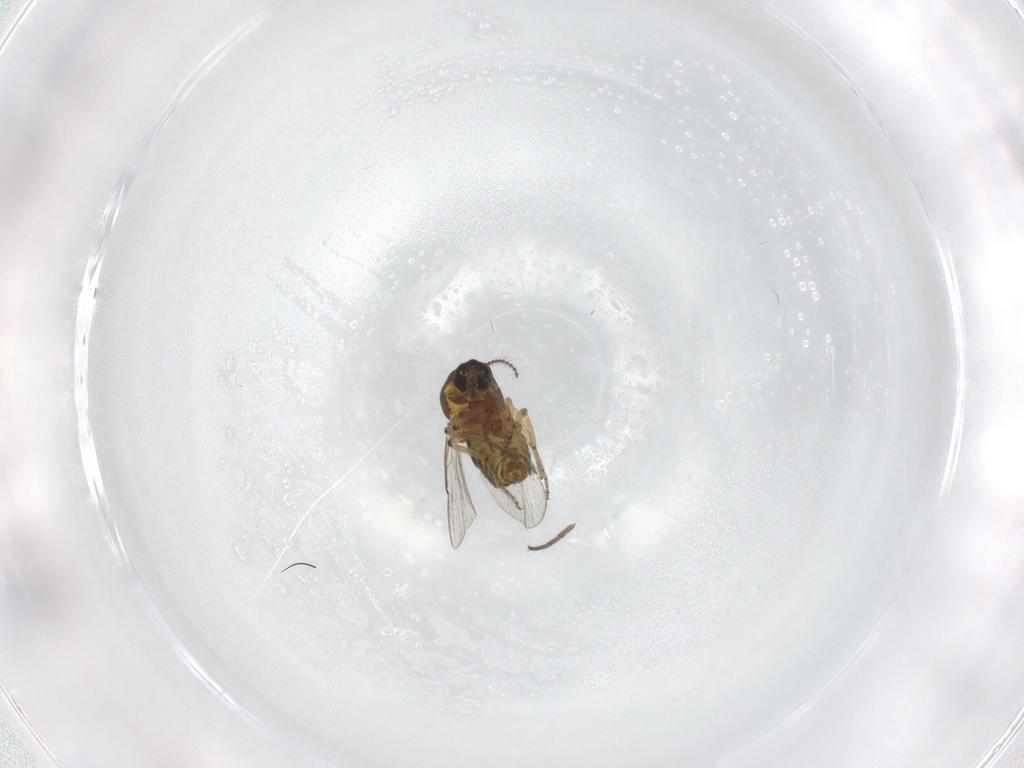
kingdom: Animalia
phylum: Arthropoda
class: Insecta
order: Diptera
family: Ceratopogonidae
